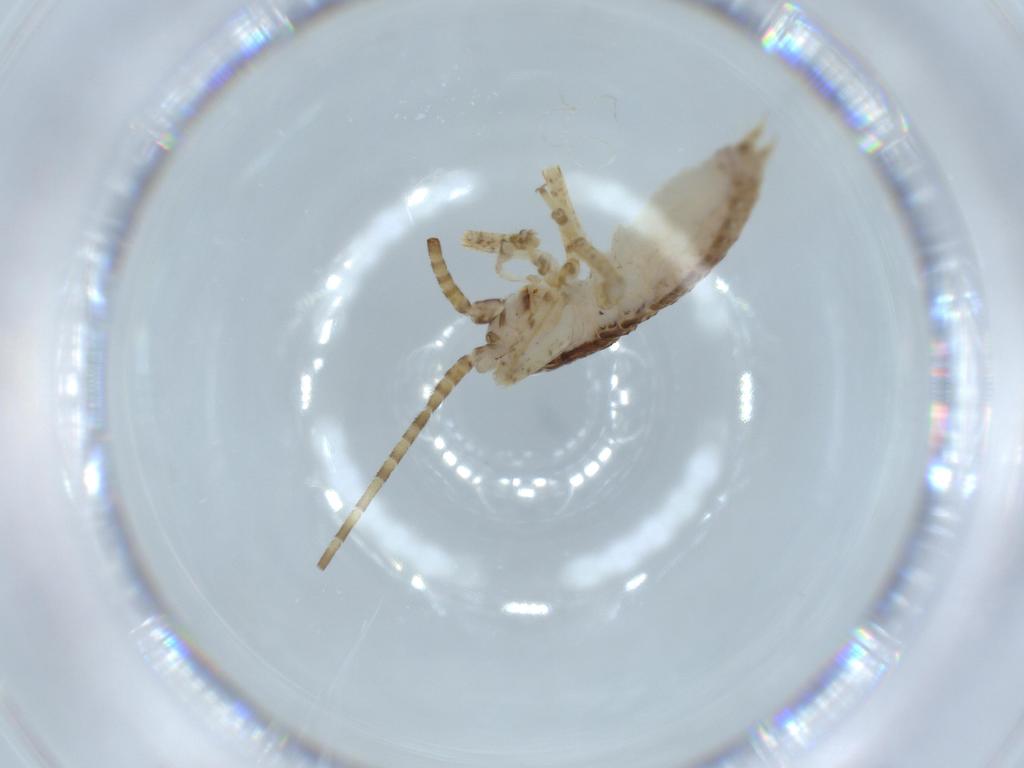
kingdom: Animalia
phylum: Arthropoda
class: Insecta
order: Orthoptera
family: Gryllidae
